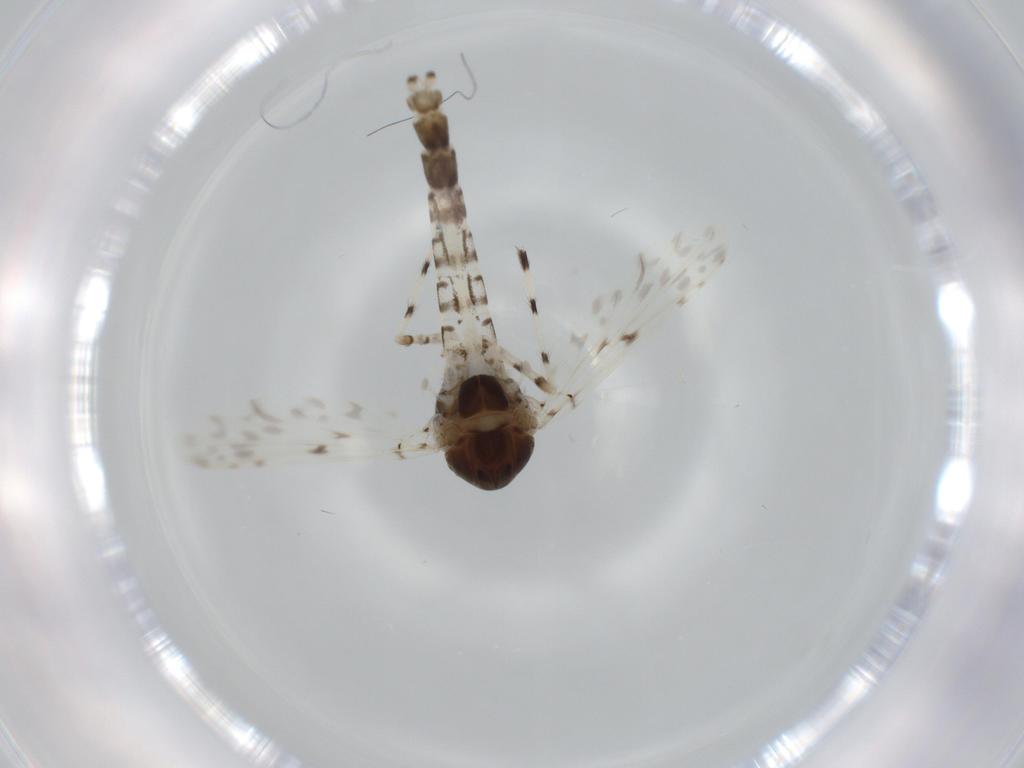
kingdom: Animalia
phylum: Arthropoda
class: Insecta
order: Diptera
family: Chironomidae
